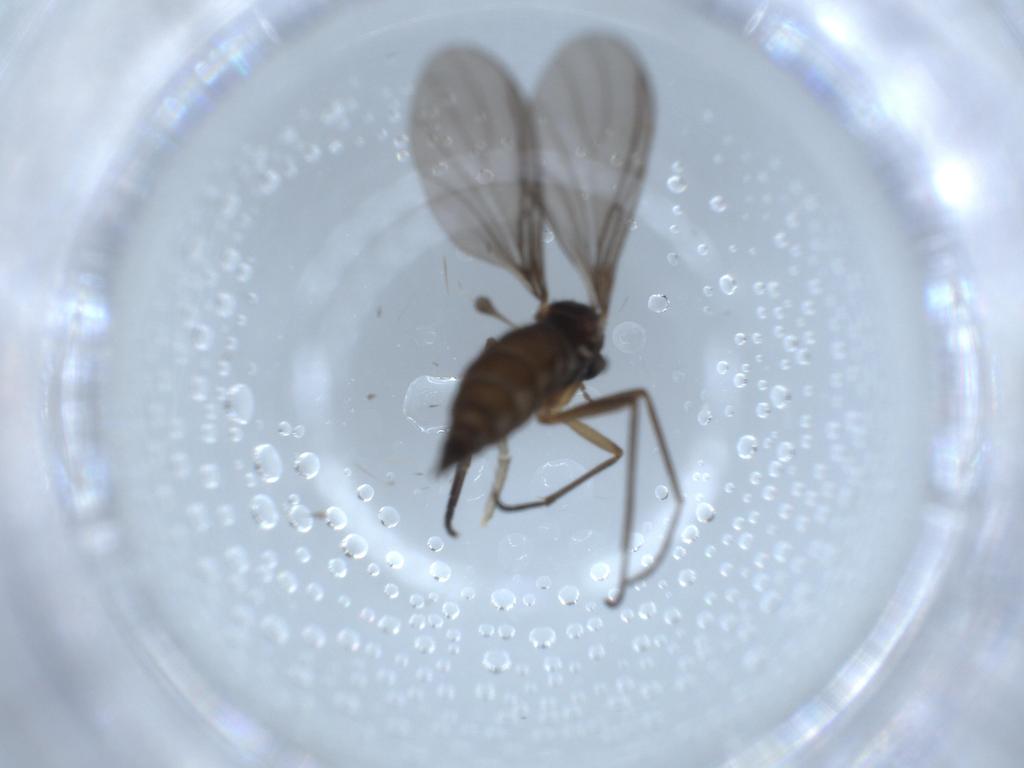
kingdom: Animalia
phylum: Arthropoda
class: Insecta
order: Diptera
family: Sciaridae
